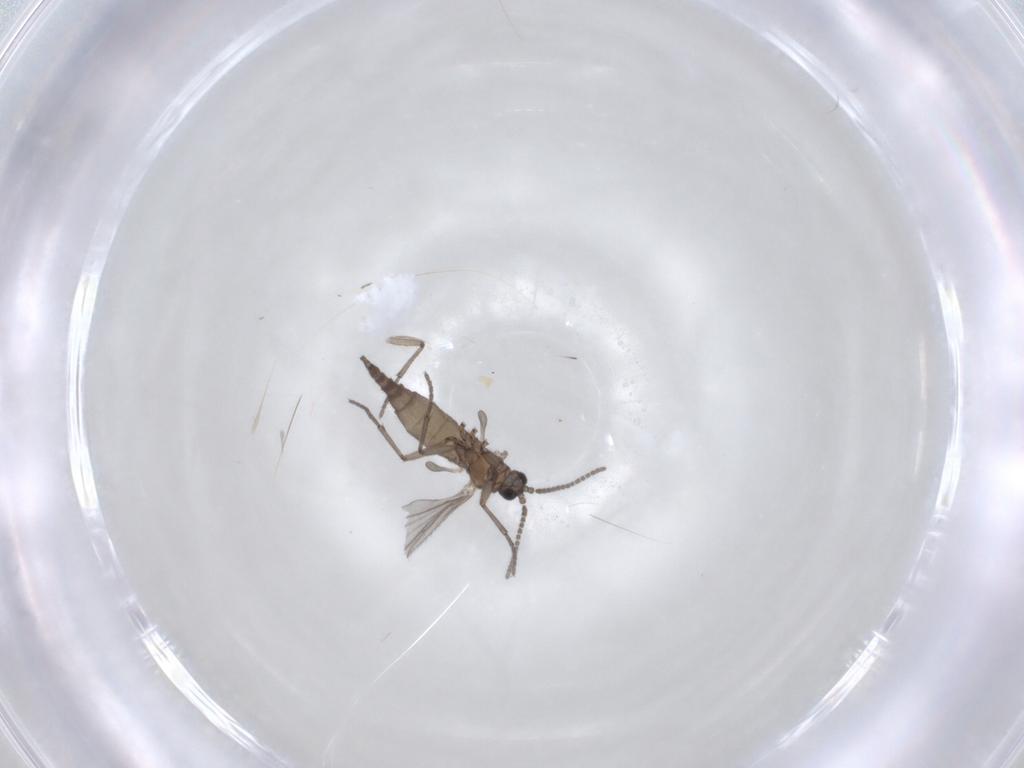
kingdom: Animalia
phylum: Arthropoda
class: Insecta
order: Diptera
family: Sciaridae
